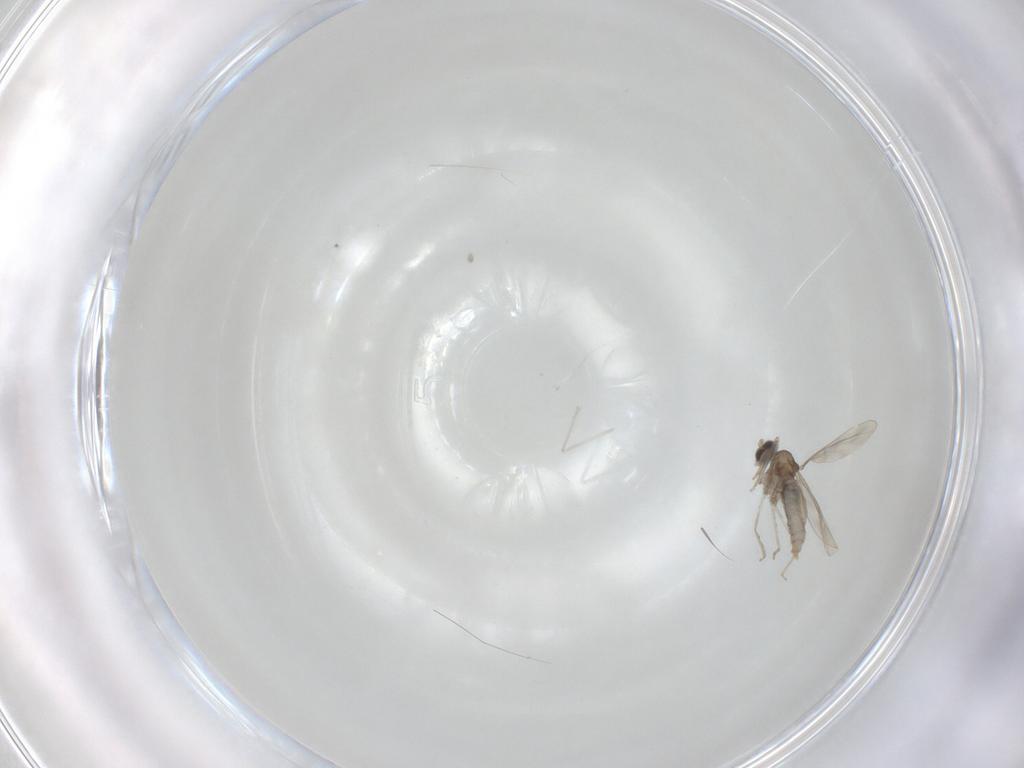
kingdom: Animalia
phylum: Arthropoda
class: Insecta
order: Diptera
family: Cecidomyiidae
